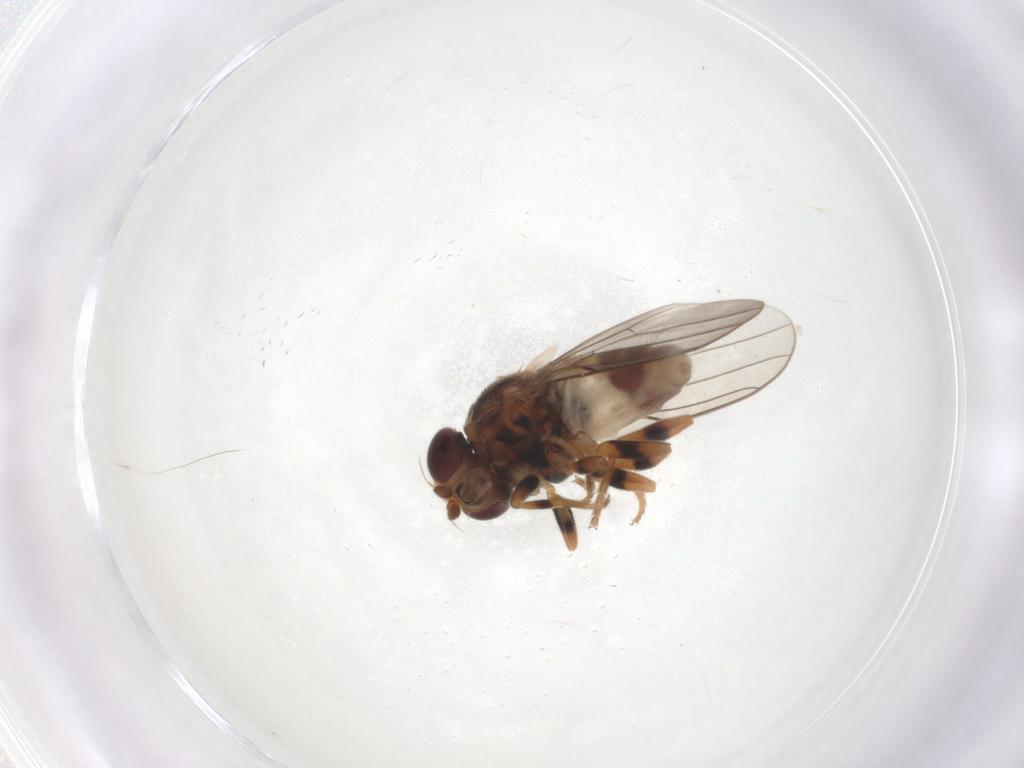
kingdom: Animalia
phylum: Arthropoda
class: Insecta
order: Diptera
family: Chloropidae
